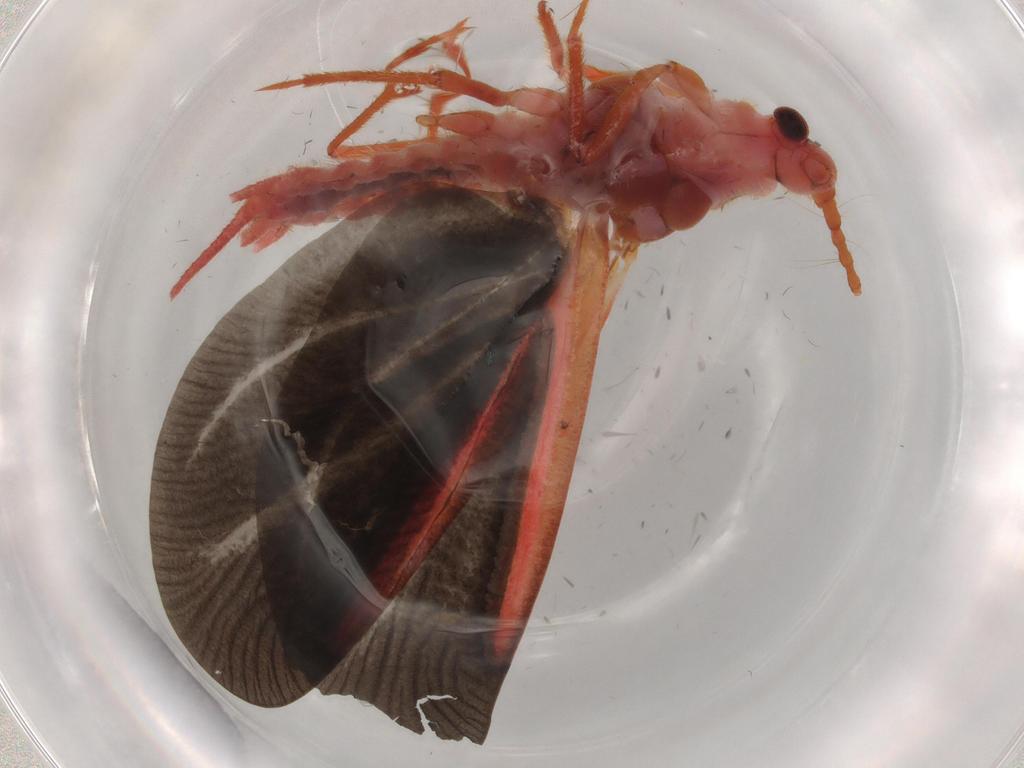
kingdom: Animalia
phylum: Arthropoda
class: Insecta
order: Hemiptera
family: Coccoidea_incertae_sedis
